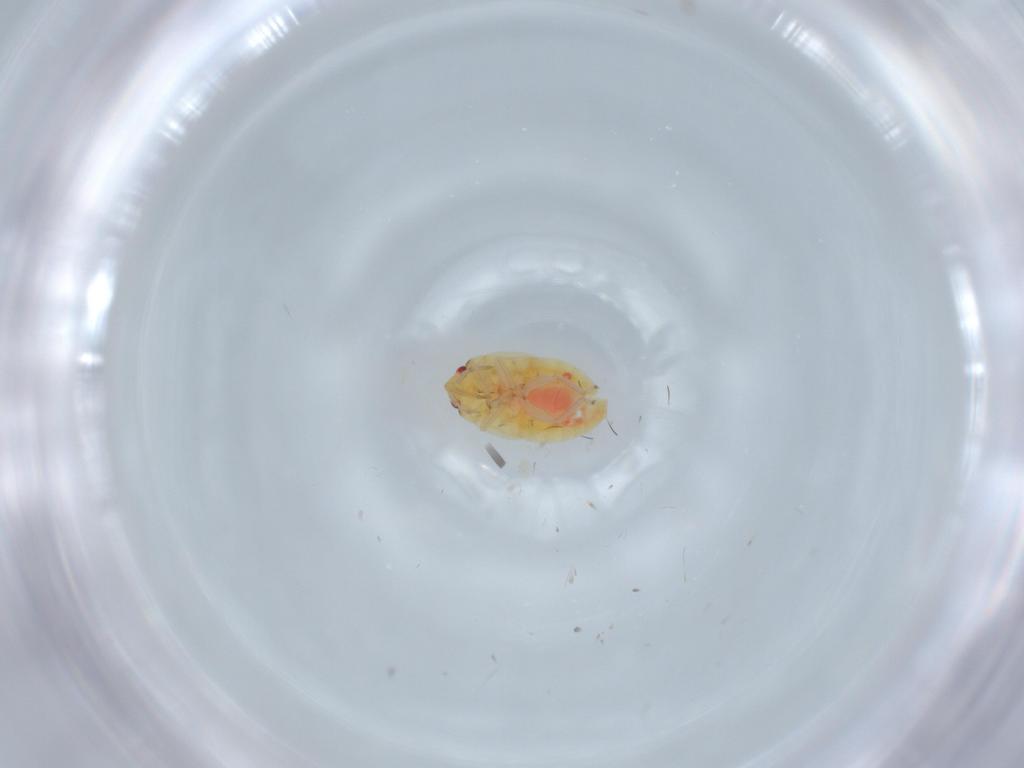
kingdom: Animalia
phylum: Arthropoda
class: Insecta
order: Hemiptera
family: Anthocoridae
